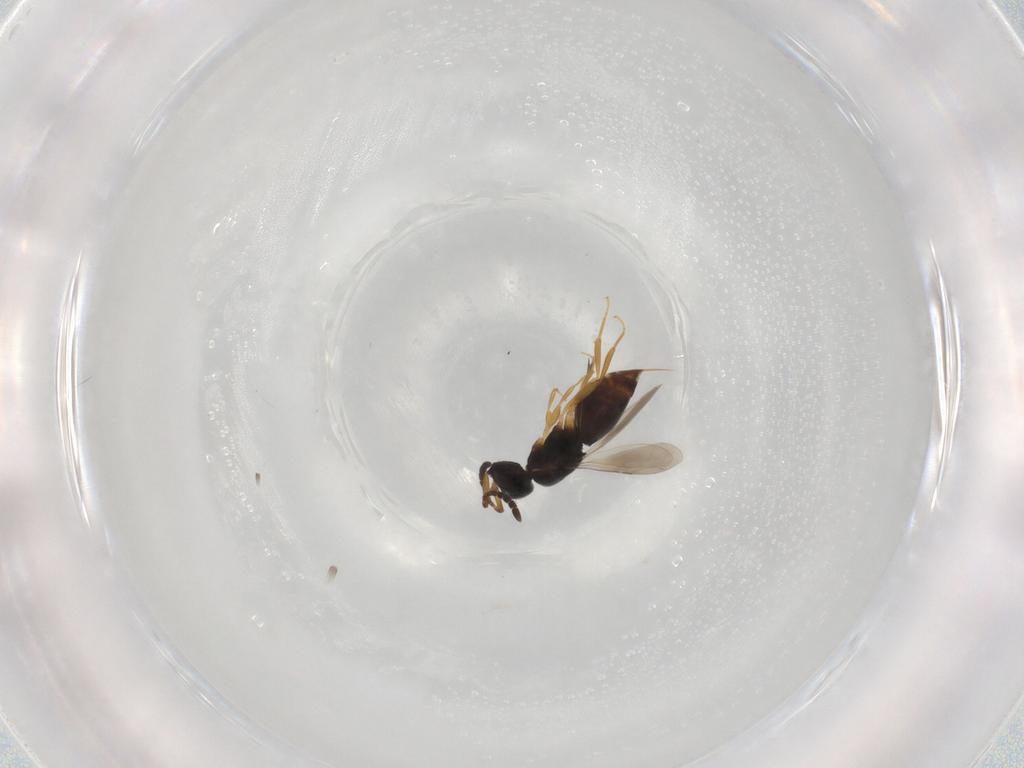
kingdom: Animalia
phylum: Arthropoda
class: Insecta
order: Hymenoptera
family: Ceraphronidae
